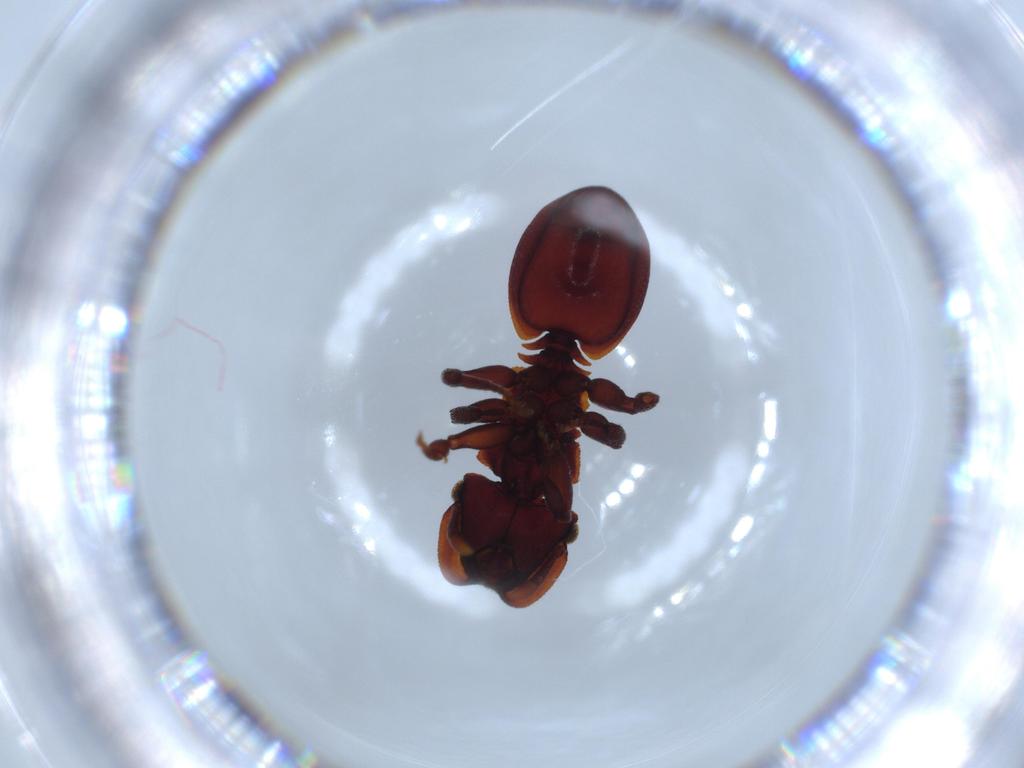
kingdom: Animalia
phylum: Arthropoda
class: Insecta
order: Hymenoptera
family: Formicidae
